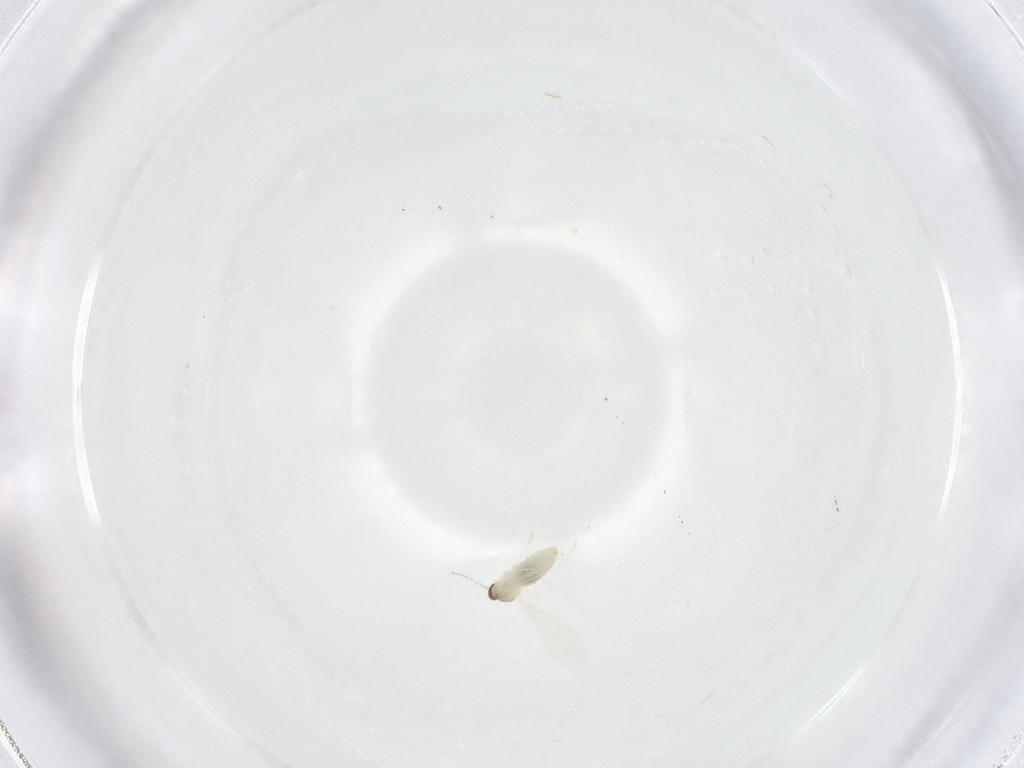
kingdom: Animalia
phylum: Arthropoda
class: Insecta
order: Diptera
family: Cecidomyiidae
